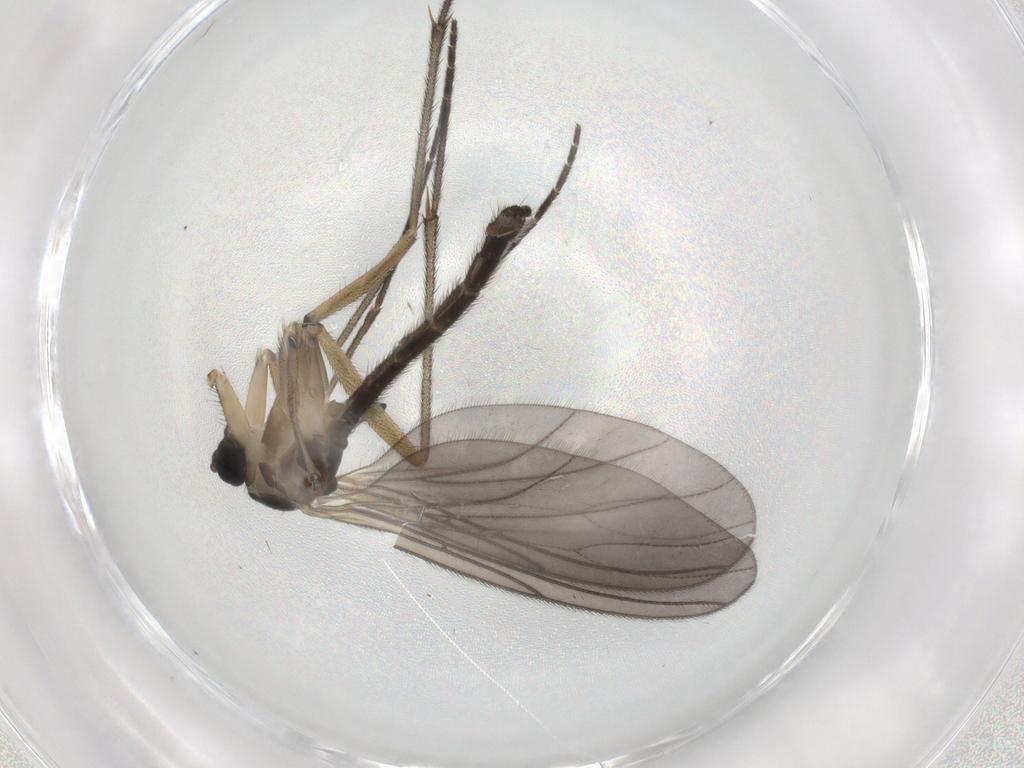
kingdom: Animalia
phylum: Arthropoda
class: Insecta
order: Diptera
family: Sciaridae
